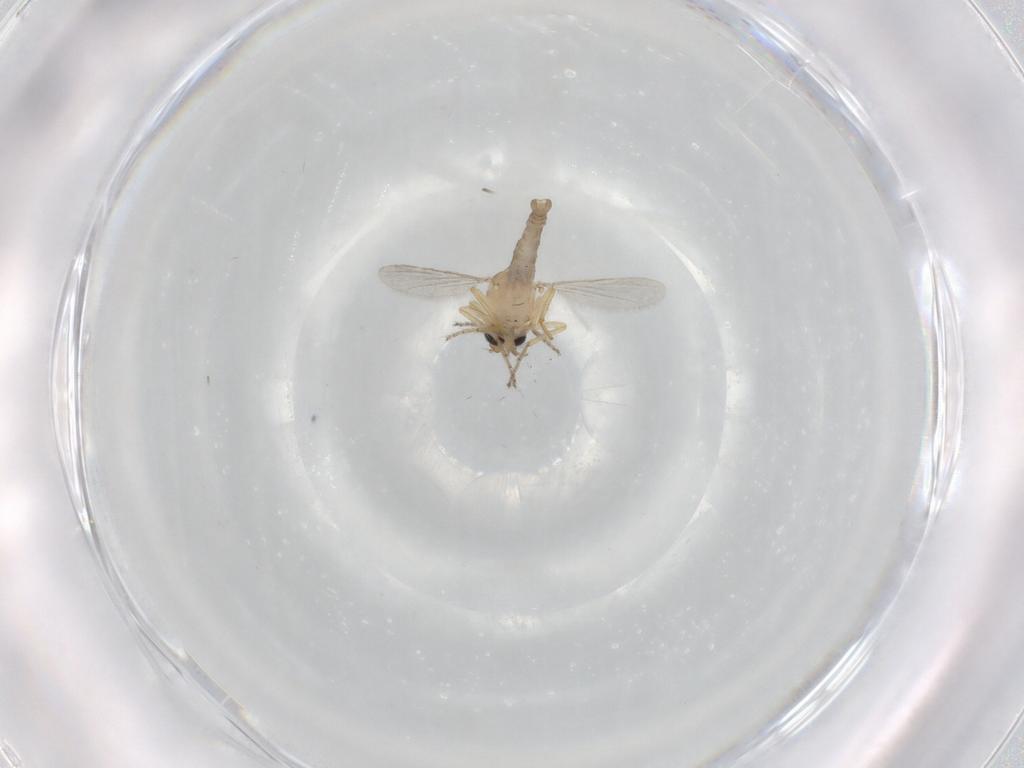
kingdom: Animalia
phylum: Arthropoda
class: Insecta
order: Diptera
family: Ceratopogonidae
